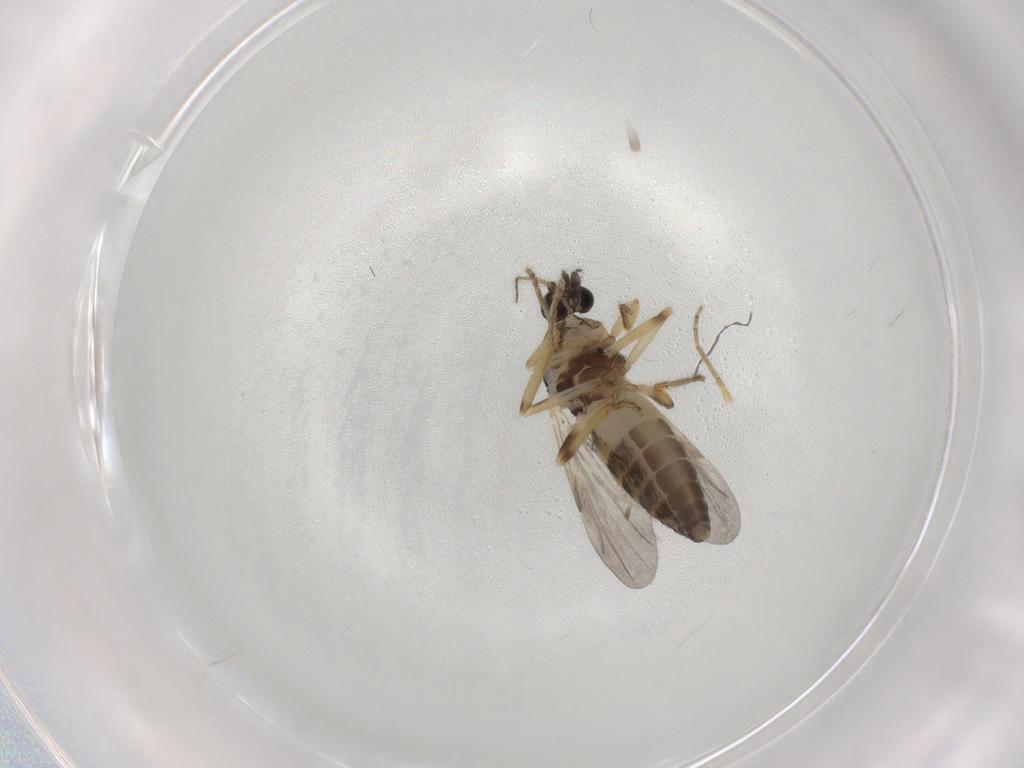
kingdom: Animalia
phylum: Arthropoda
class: Insecta
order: Diptera
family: Ceratopogonidae
